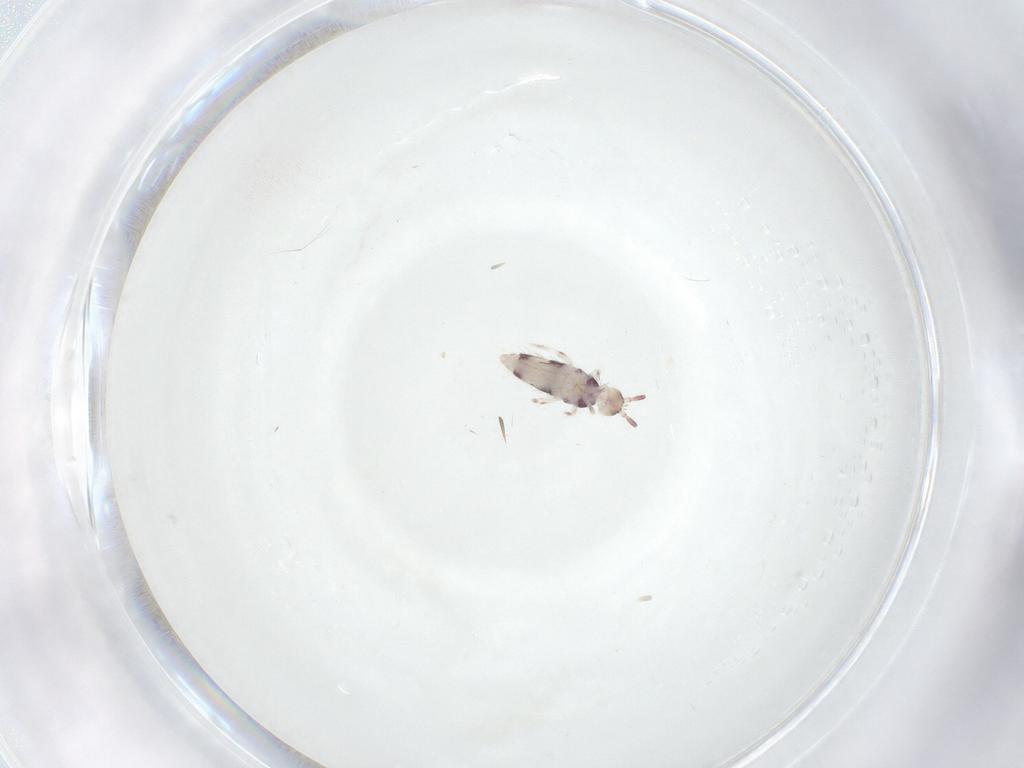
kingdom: Animalia
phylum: Arthropoda
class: Collembola
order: Entomobryomorpha
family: Entomobryidae
